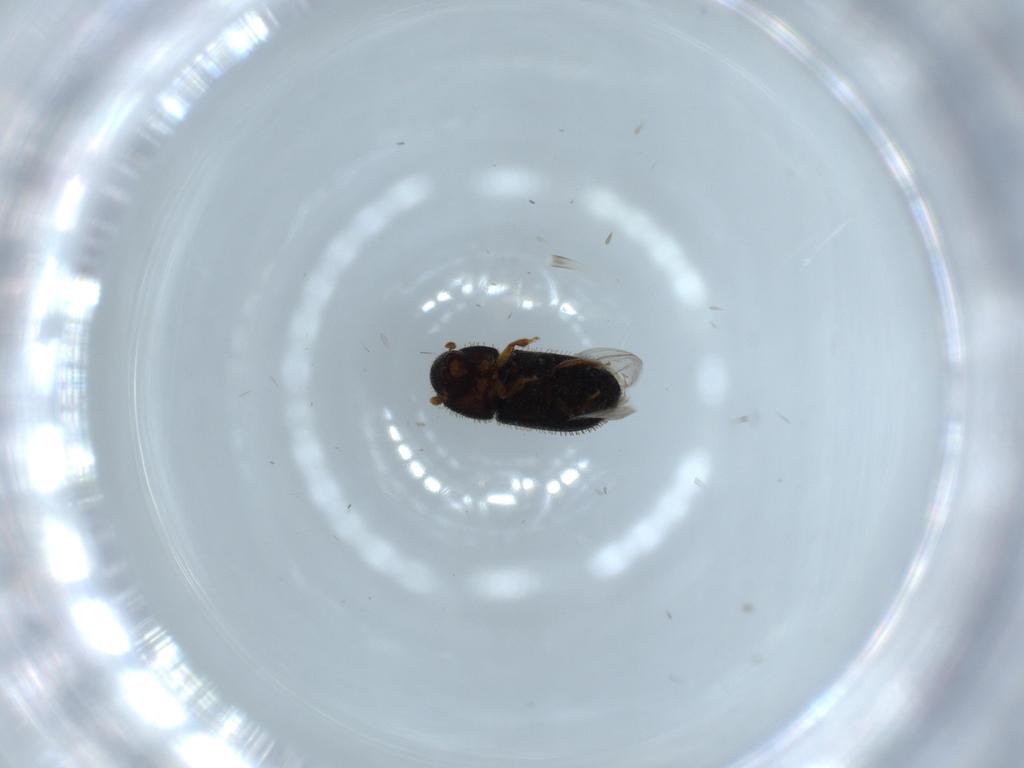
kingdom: Animalia
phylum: Arthropoda
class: Insecta
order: Coleoptera
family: Curculionidae
